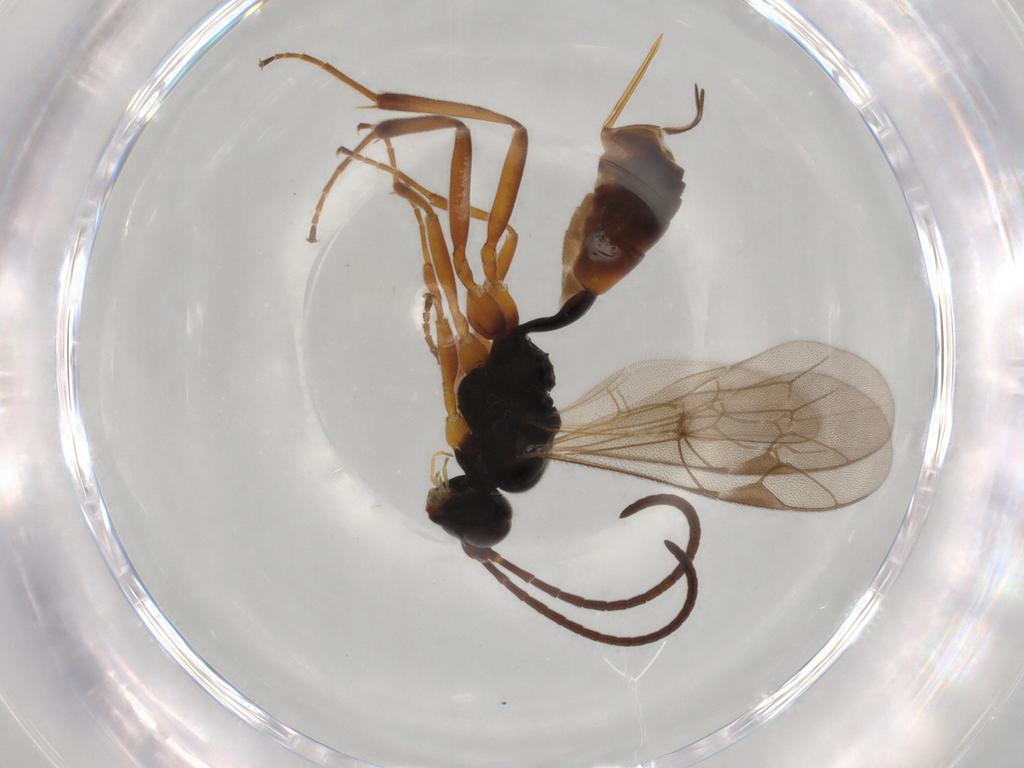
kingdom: Animalia
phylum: Arthropoda
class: Insecta
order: Hymenoptera
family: Ichneumonidae
